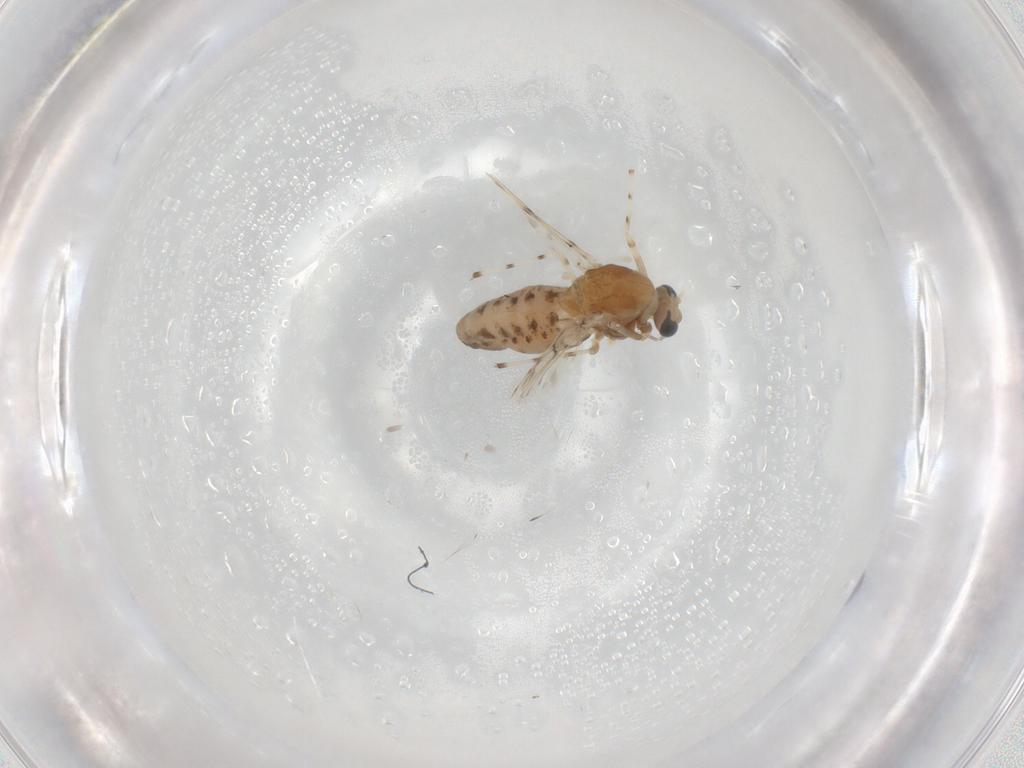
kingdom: Animalia
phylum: Arthropoda
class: Insecta
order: Diptera
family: Chironomidae
